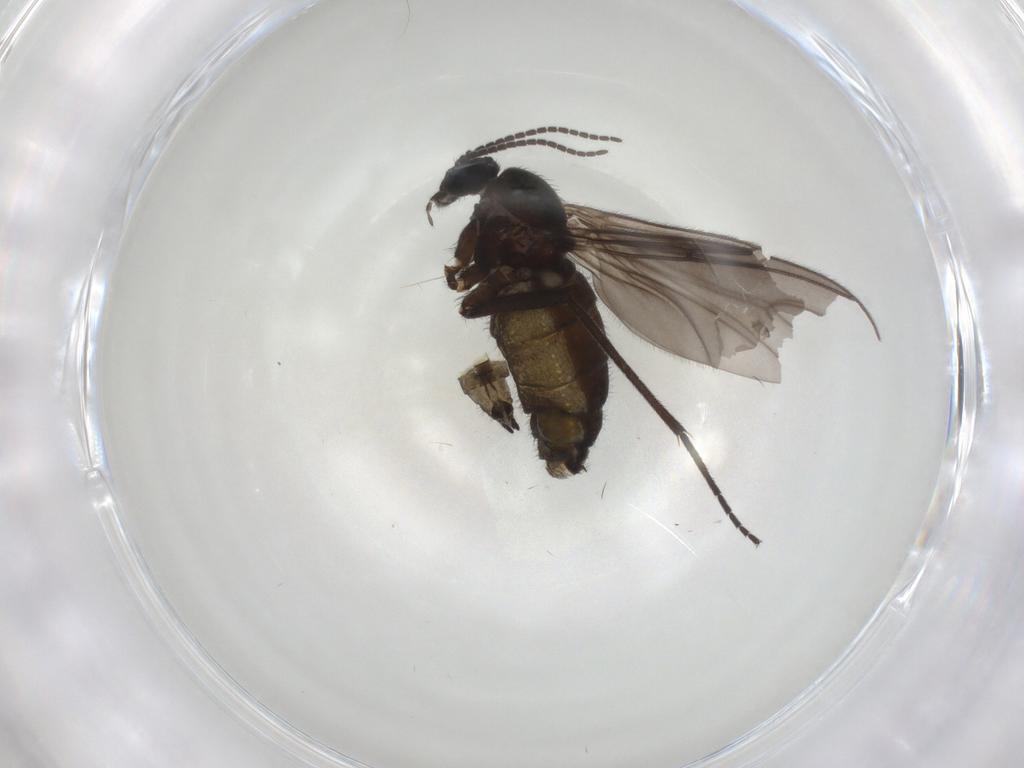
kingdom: Animalia
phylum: Arthropoda
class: Insecta
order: Diptera
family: Sciaridae
